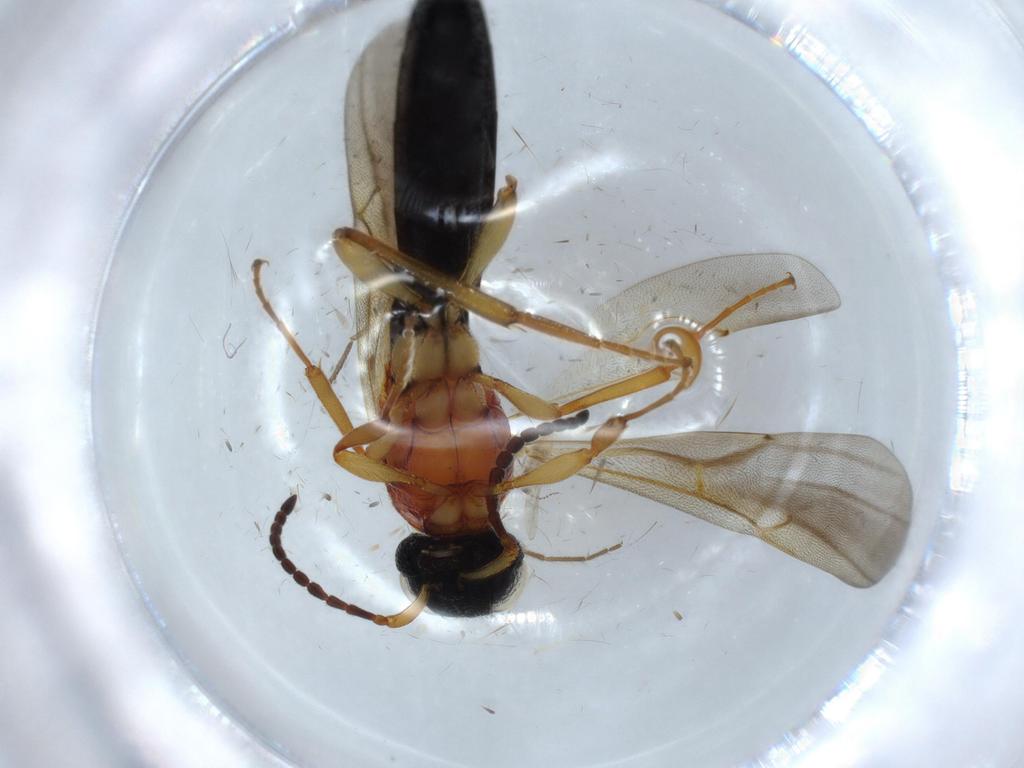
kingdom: Animalia
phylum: Arthropoda
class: Insecta
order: Hymenoptera
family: Scelionidae
